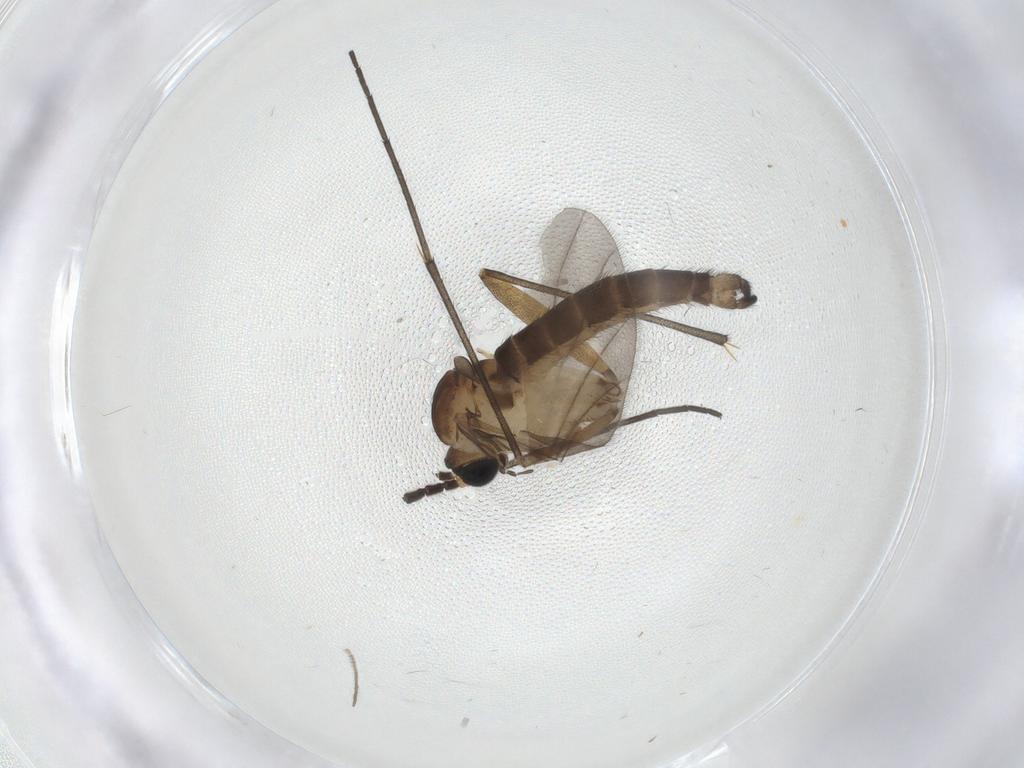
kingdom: Animalia
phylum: Arthropoda
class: Insecta
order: Diptera
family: Sciaridae
